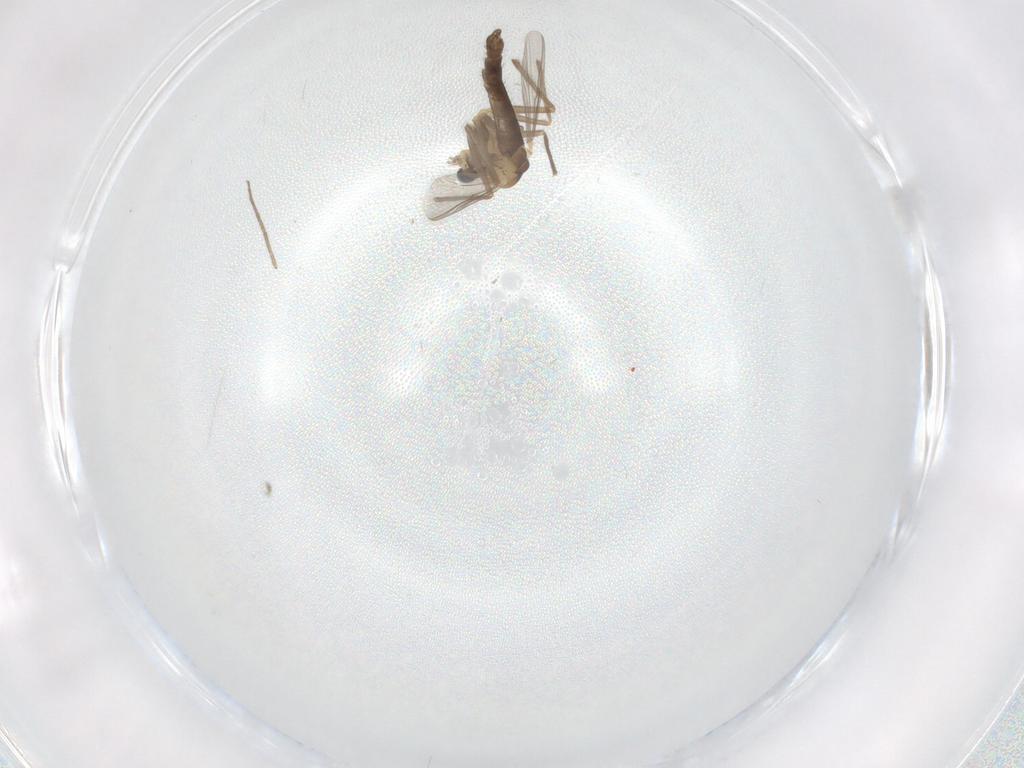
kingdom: Animalia
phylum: Arthropoda
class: Insecta
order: Diptera
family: Chironomidae
